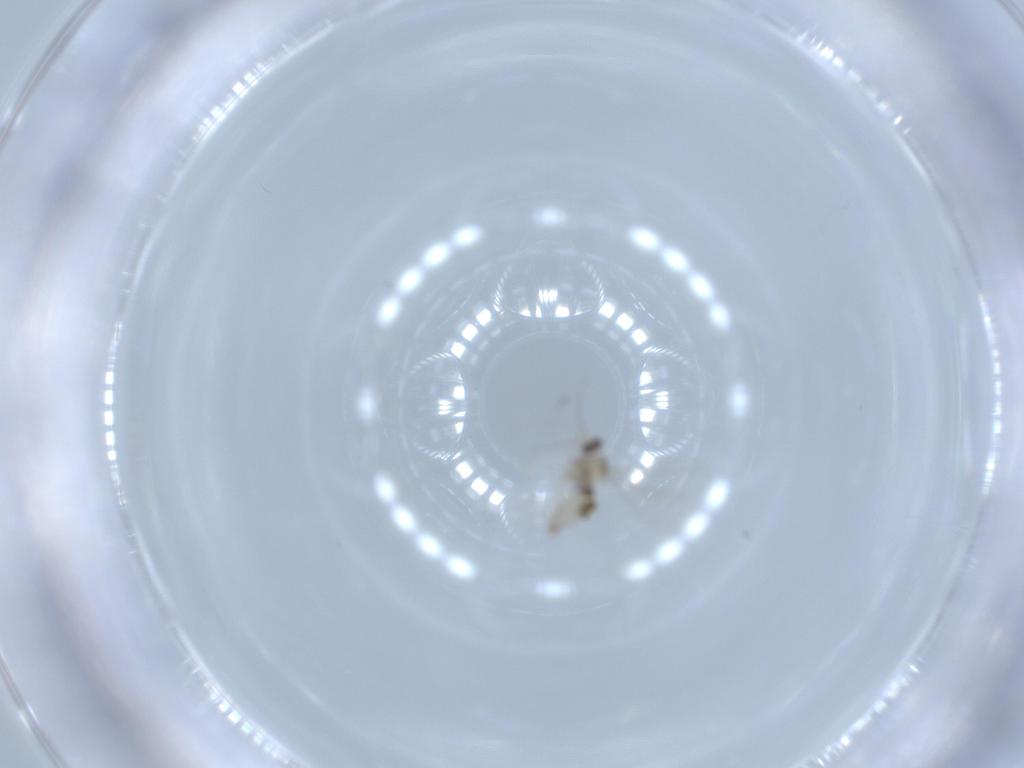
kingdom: Animalia
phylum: Arthropoda
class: Insecta
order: Diptera
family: Cecidomyiidae
